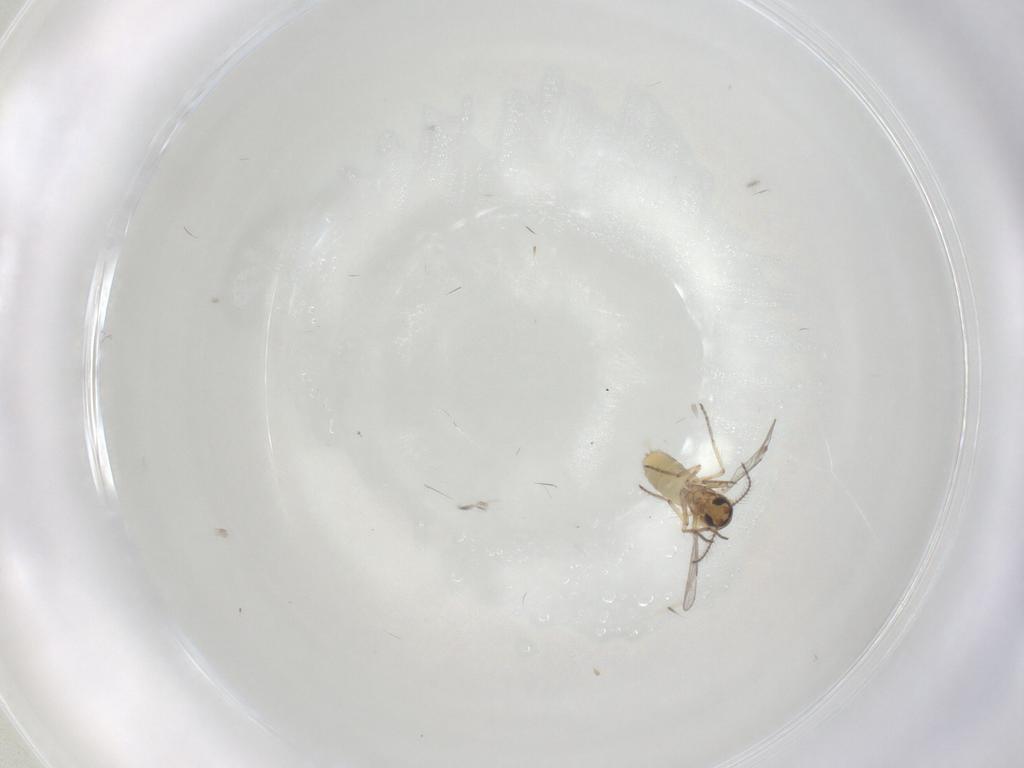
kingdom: Animalia
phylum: Arthropoda
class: Insecta
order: Diptera
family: Ceratopogonidae
